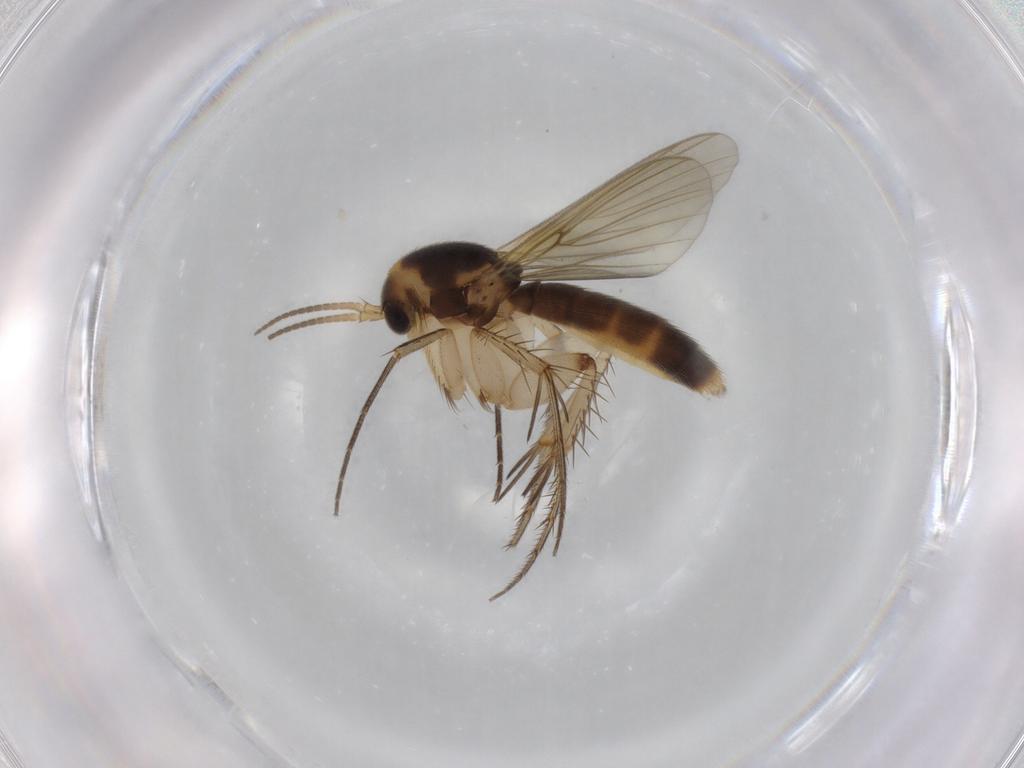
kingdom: Animalia
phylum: Arthropoda
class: Insecta
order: Diptera
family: Mycetophilidae
